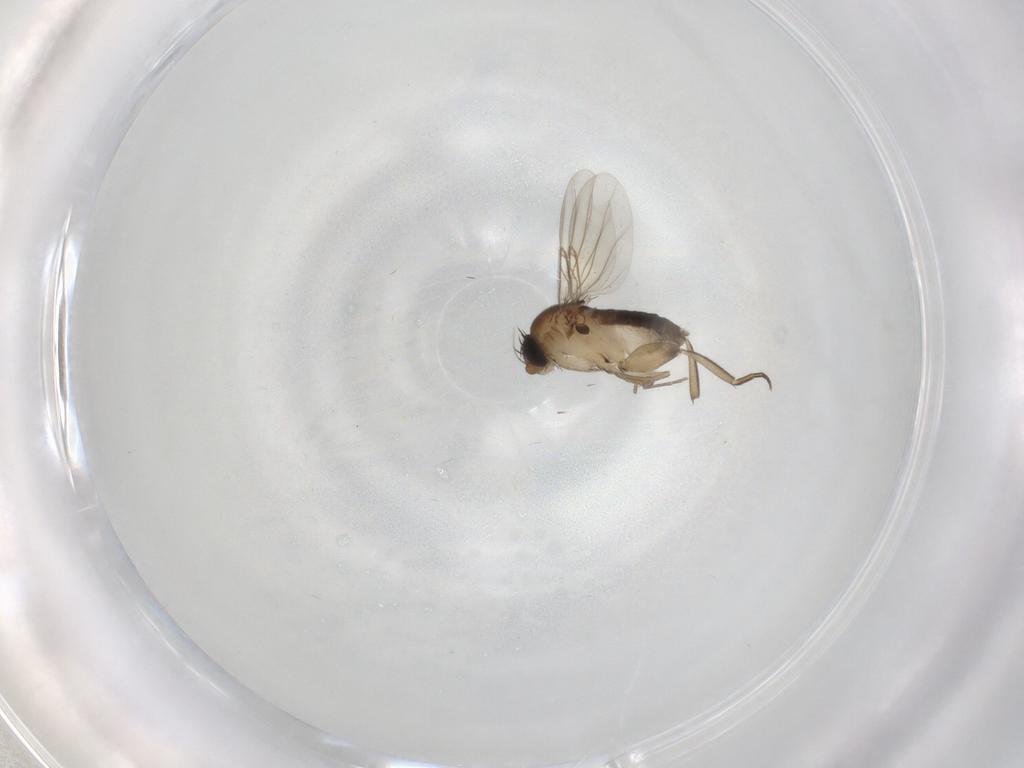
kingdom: Animalia
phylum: Arthropoda
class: Insecta
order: Diptera
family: Phoridae
